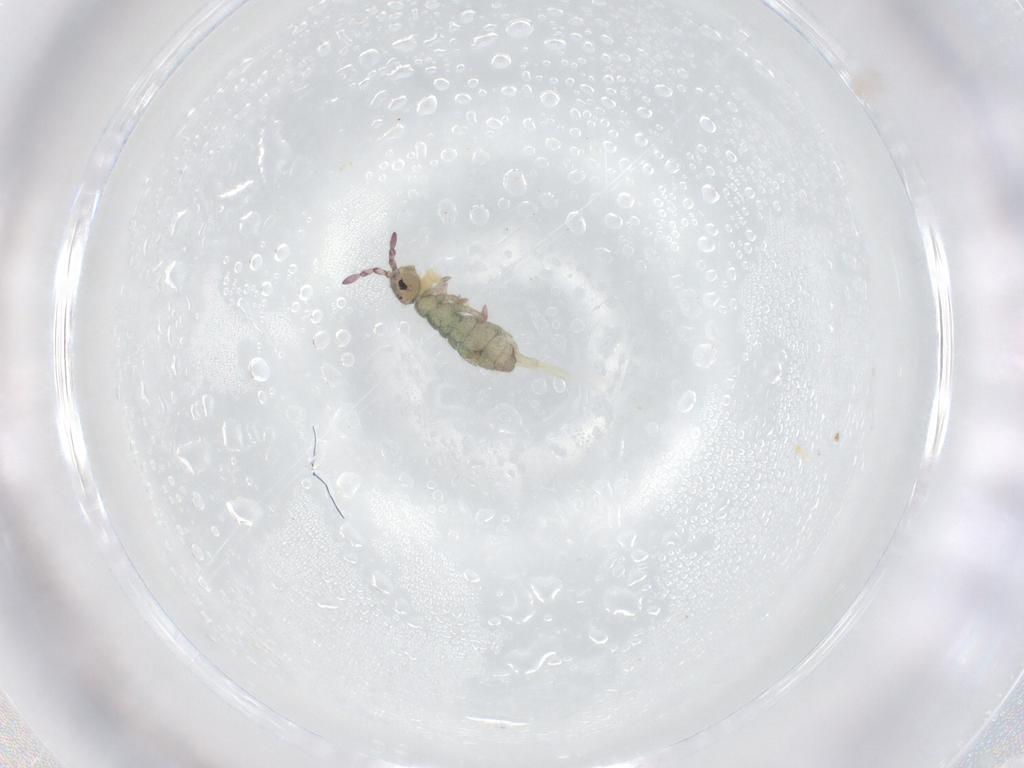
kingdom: Animalia
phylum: Arthropoda
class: Collembola
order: Entomobryomorpha
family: Isotomidae
